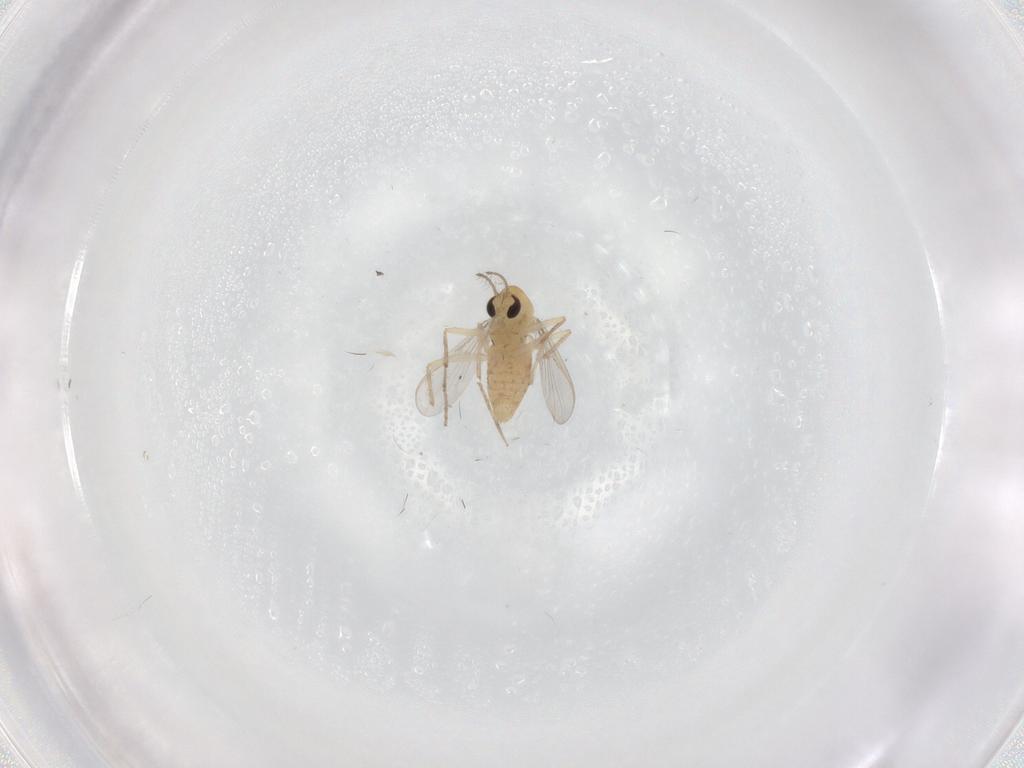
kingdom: Animalia
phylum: Arthropoda
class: Insecta
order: Diptera
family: Chironomidae
